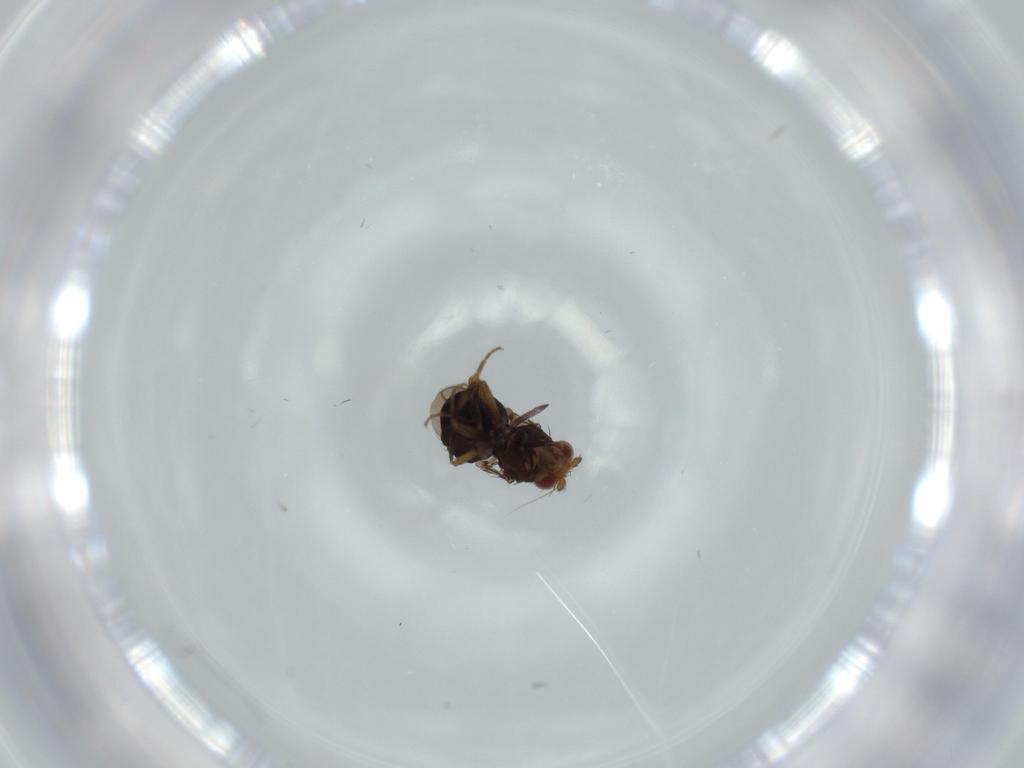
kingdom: Animalia
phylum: Arthropoda
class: Insecta
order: Diptera
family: Sphaeroceridae
